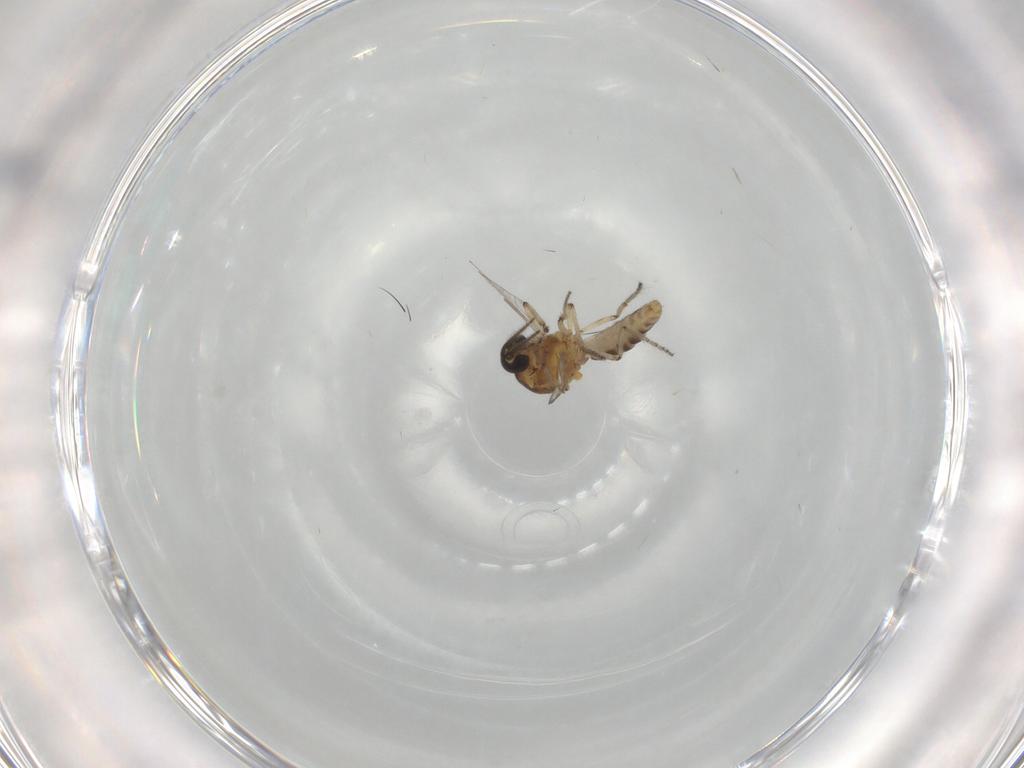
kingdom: Animalia
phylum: Arthropoda
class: Insecta
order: Diptera
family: Ceratopogonidae
